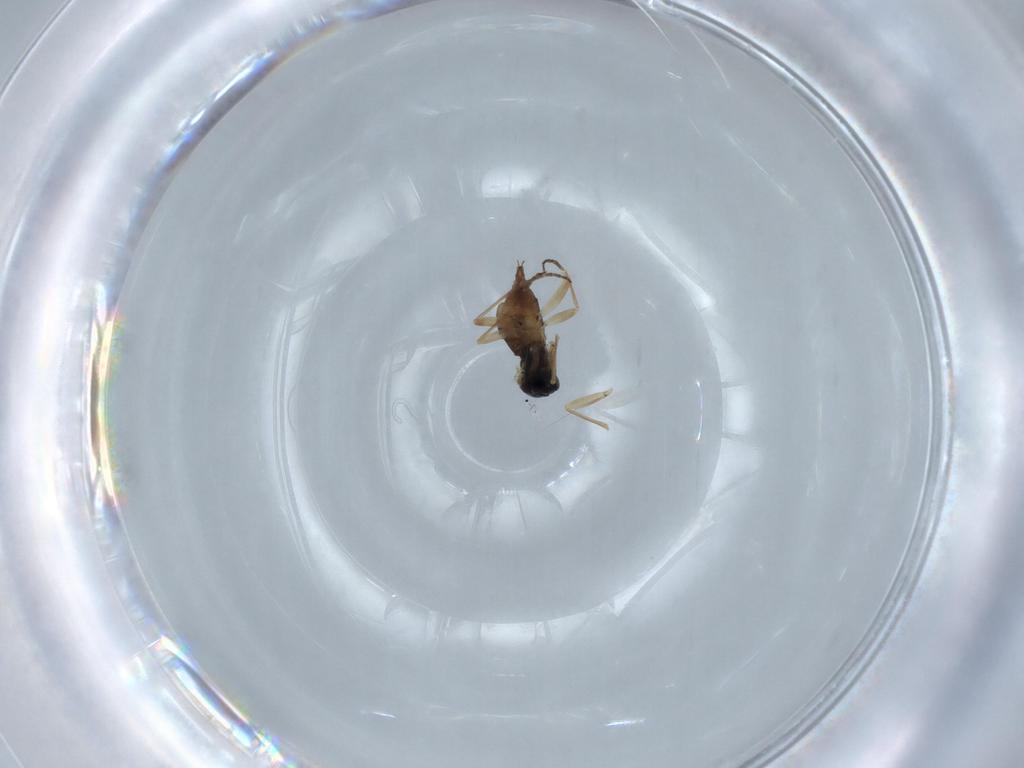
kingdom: Animalia
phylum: Arthropoda
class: Insecta
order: Diptera
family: Sciaridae
